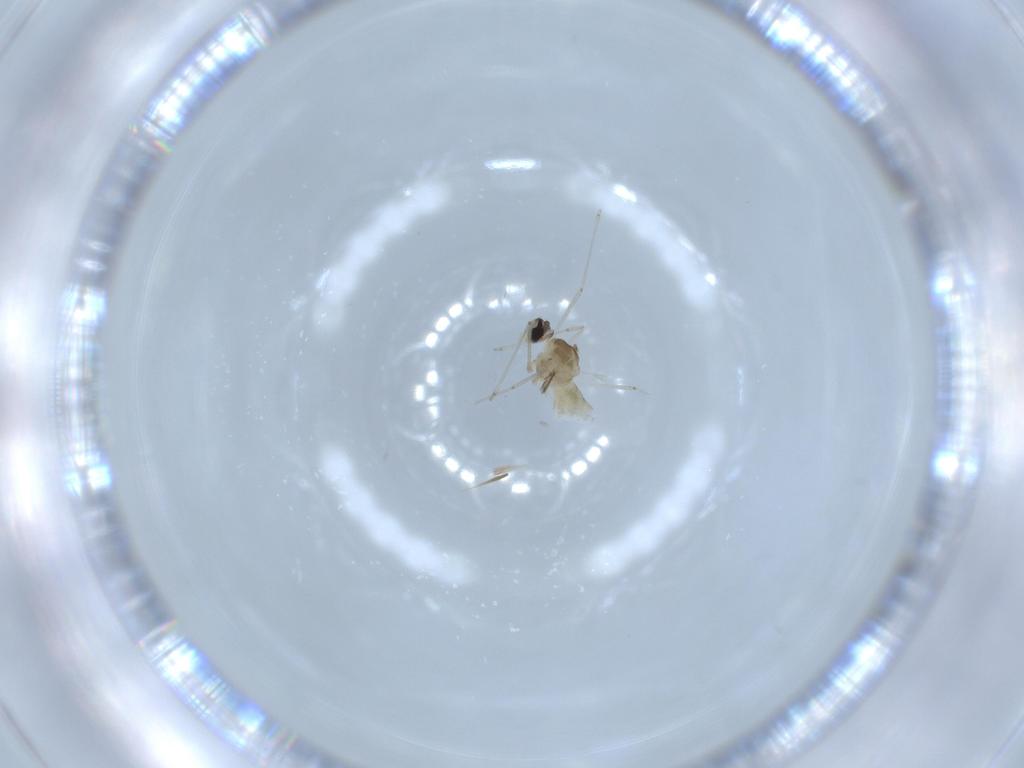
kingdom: Animalia
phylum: Arthropoda
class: Insecta
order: Diptera
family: Cecidomyiidae
